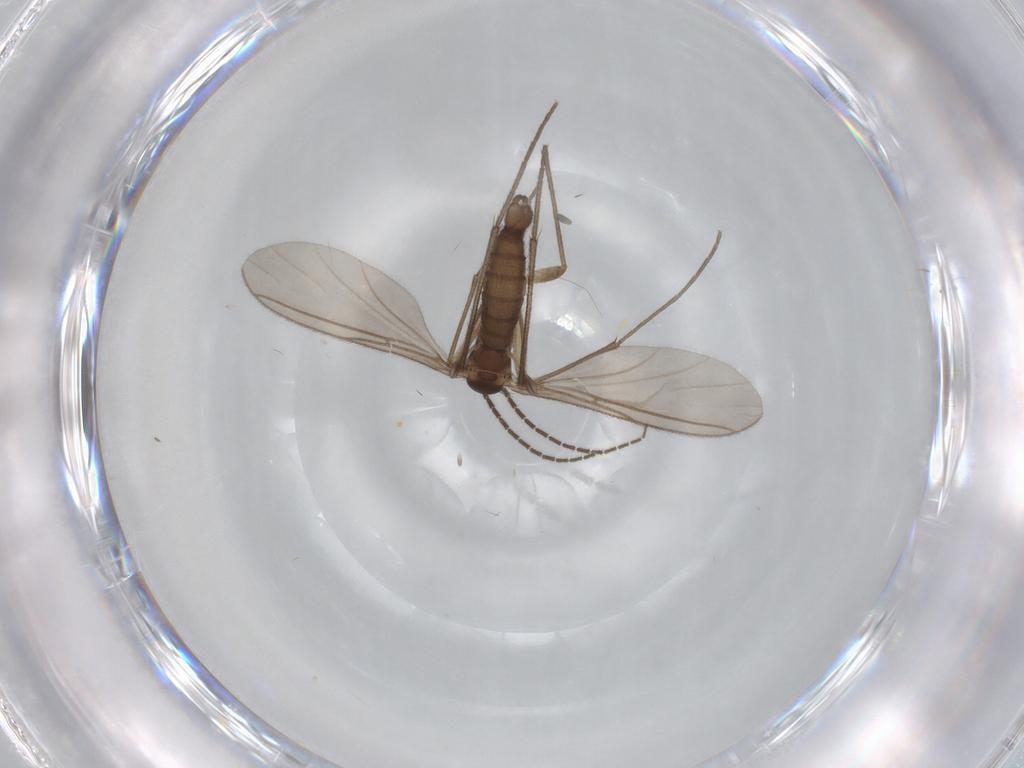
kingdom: Animalia
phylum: Arthropoda
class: Insecta
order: Diptera
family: Sciaridae
